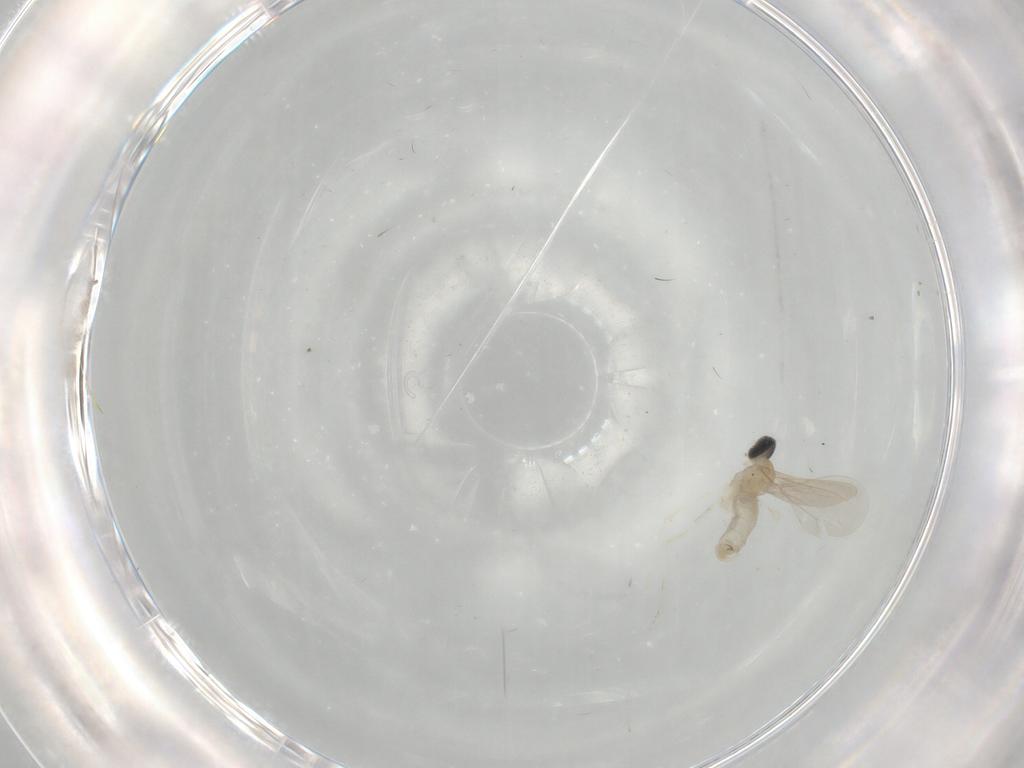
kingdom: Animalia
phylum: Arthropoda
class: Insecta
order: Diptera
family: Cecidomyiidae
